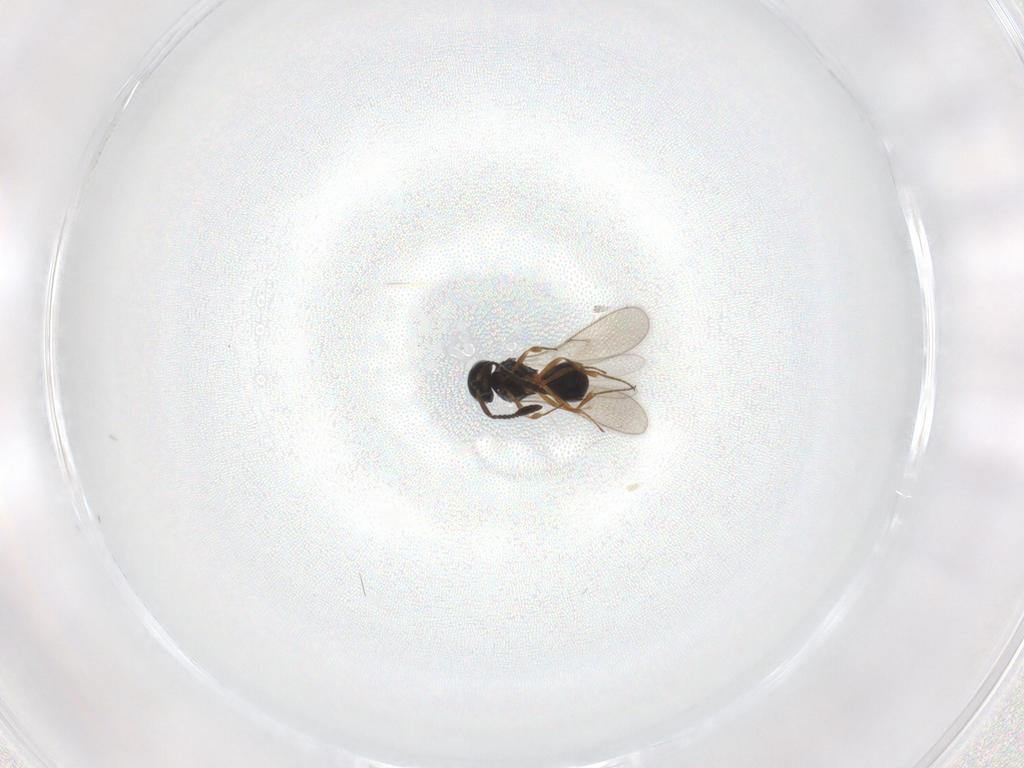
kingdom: Animalia
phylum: Arthropoda
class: Insecta
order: Hymenoptera
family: Scelionidae
